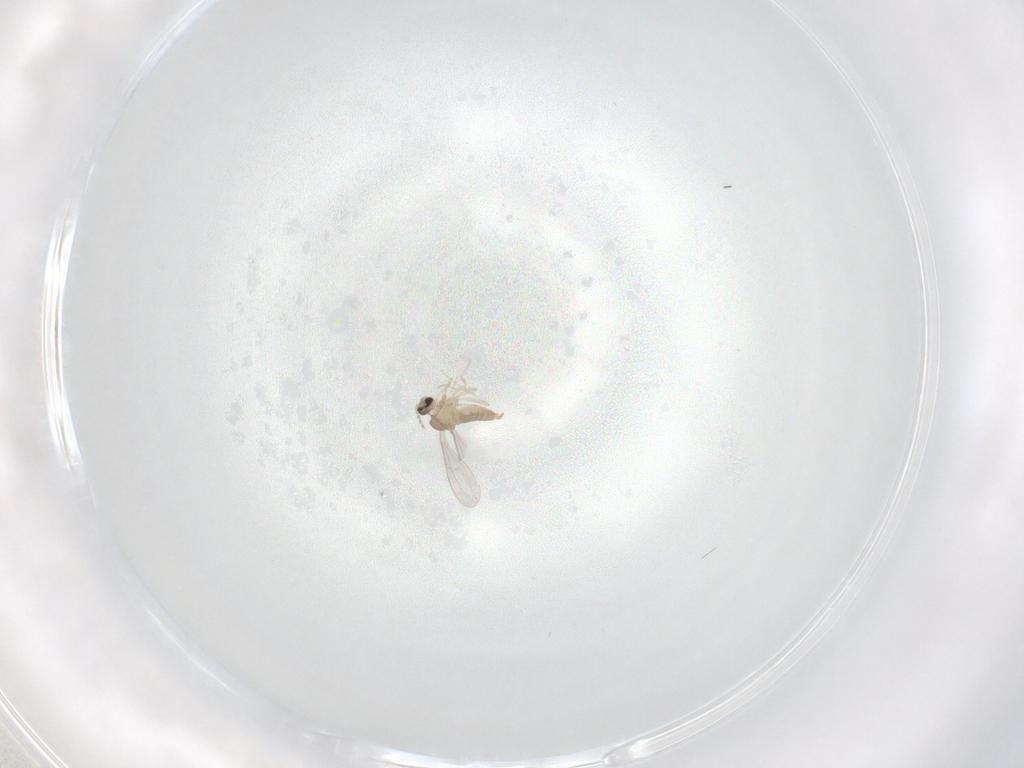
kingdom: Animalia
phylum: Arthropoda
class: Insecta
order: Diptera
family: Cecidomyiidae
